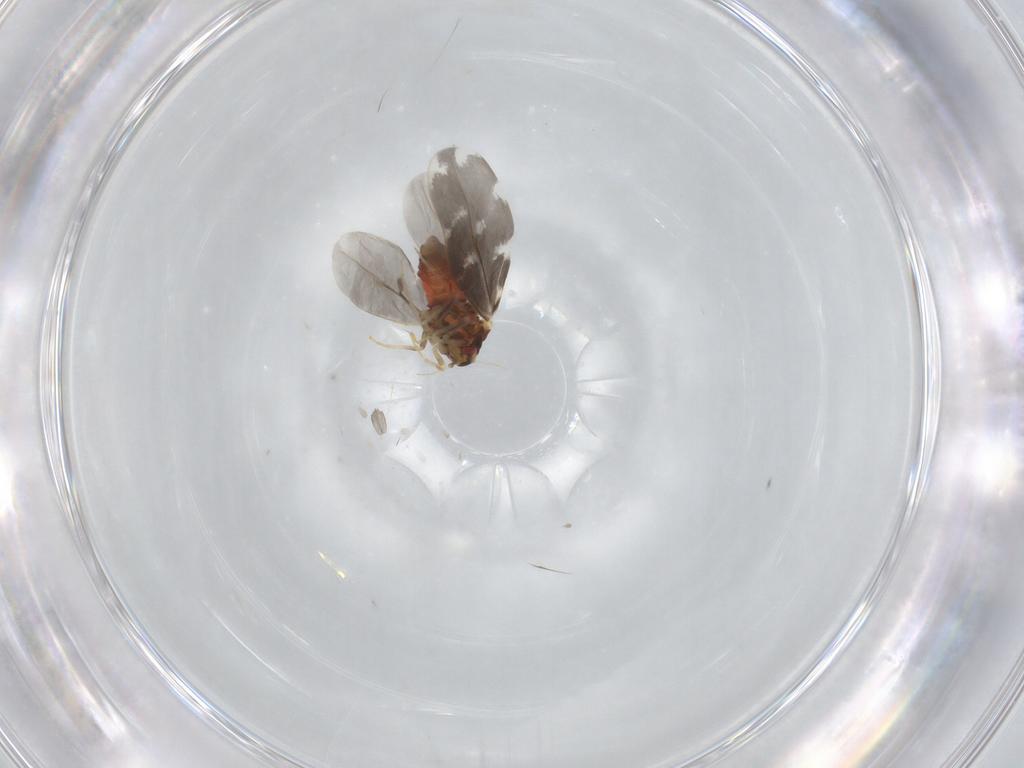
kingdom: Animalia
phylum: Arthropoda
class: Insecta
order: Hemiptera
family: Aleyrodidae
